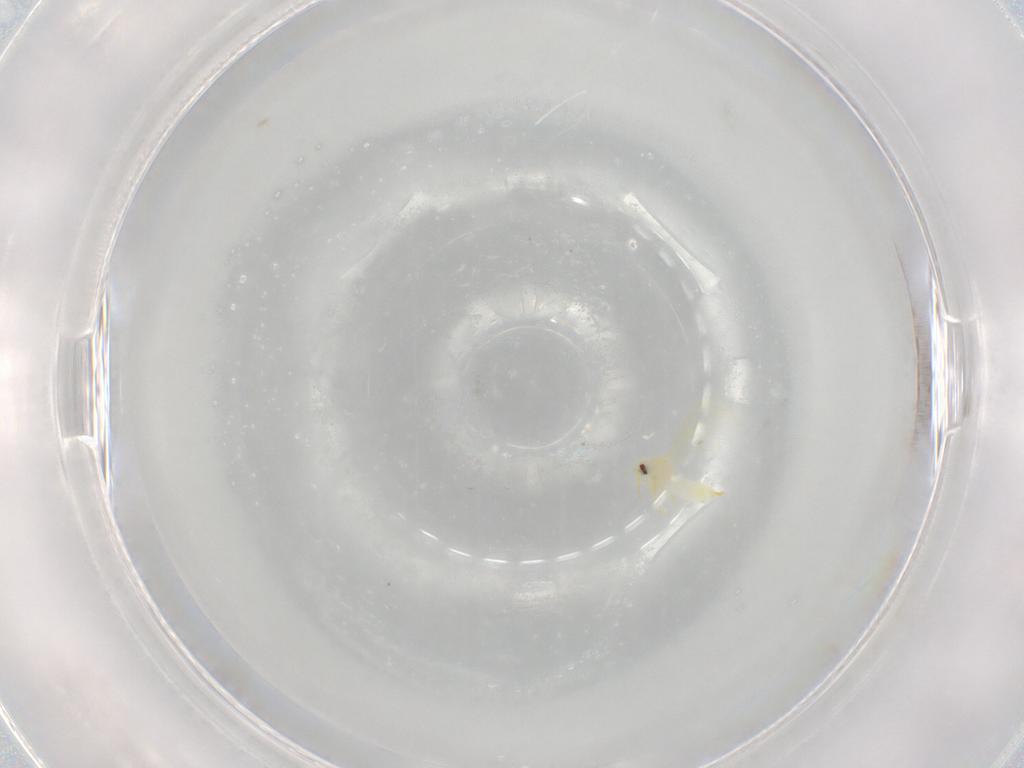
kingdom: Animalia
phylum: Arthropoda
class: Insecta
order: Hemiptera
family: Aleyrodidae
